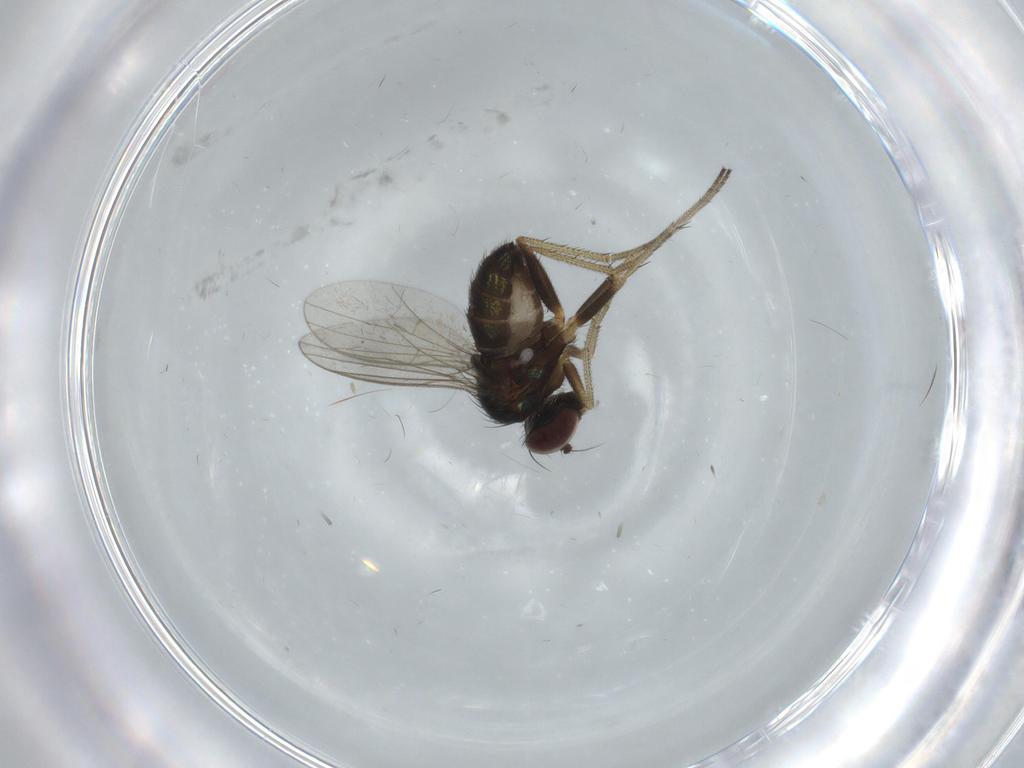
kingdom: Animalia
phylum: Arthropoda
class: Insecta
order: Diptera
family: Dolichopodidae
